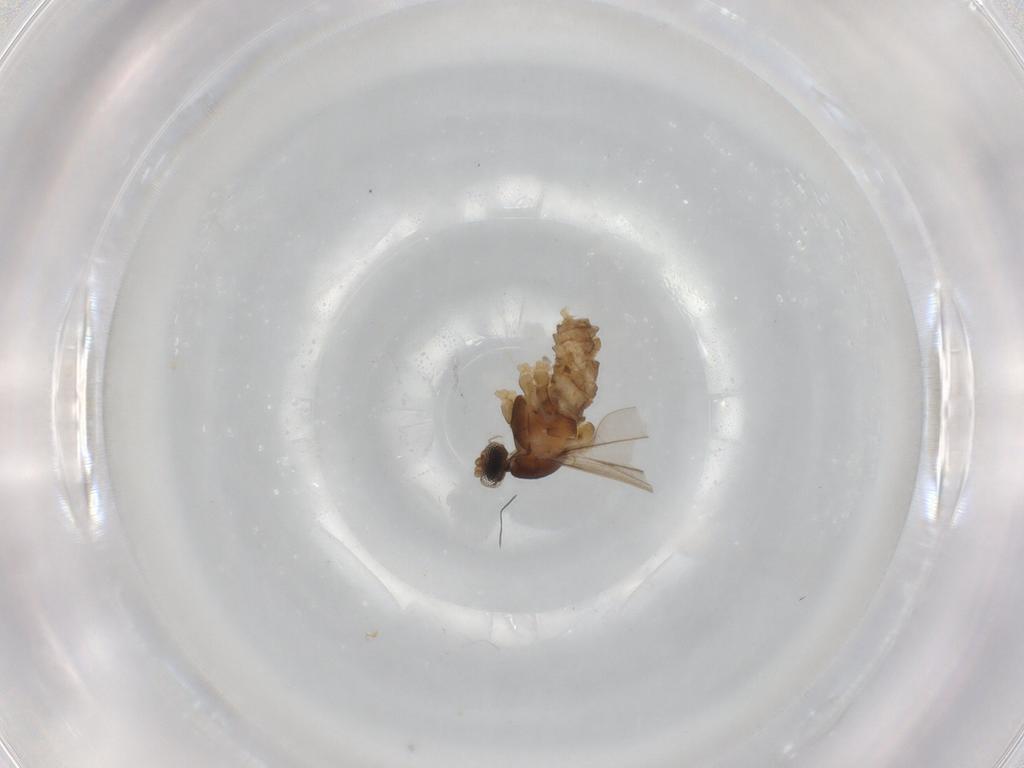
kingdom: Animalia
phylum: Arthropoda
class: Insecta
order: Diptera
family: Cecidomyiidae
